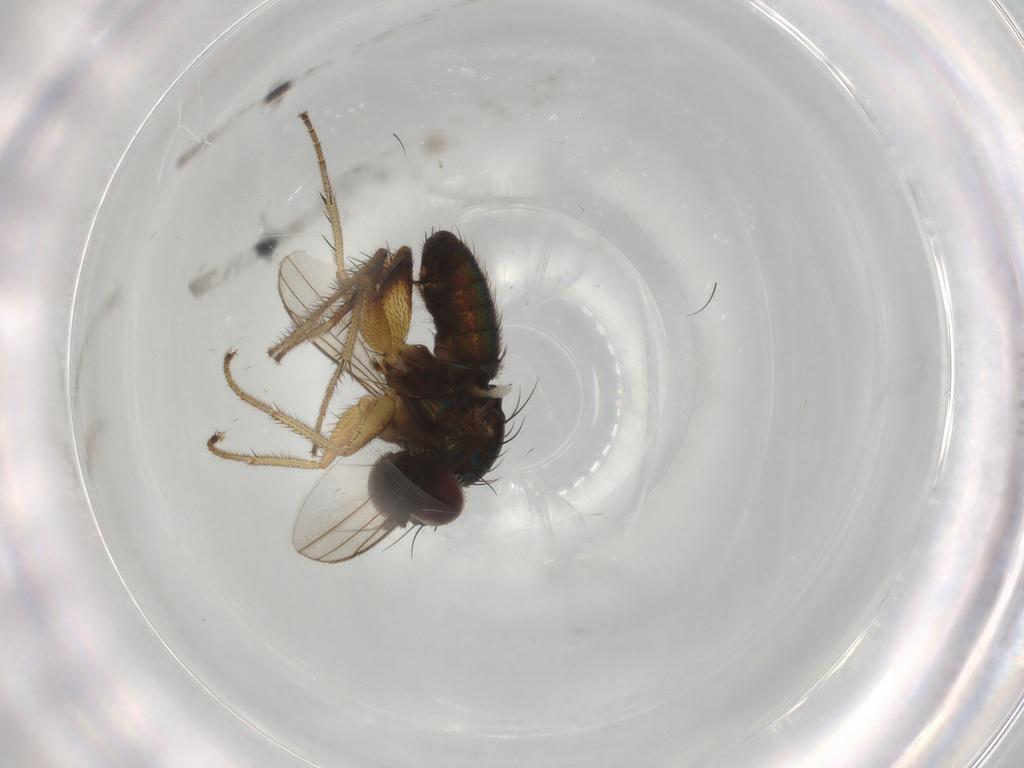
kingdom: Animalia
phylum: Arthropoda
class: Insecta
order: Diptera
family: Dolichopodidae
